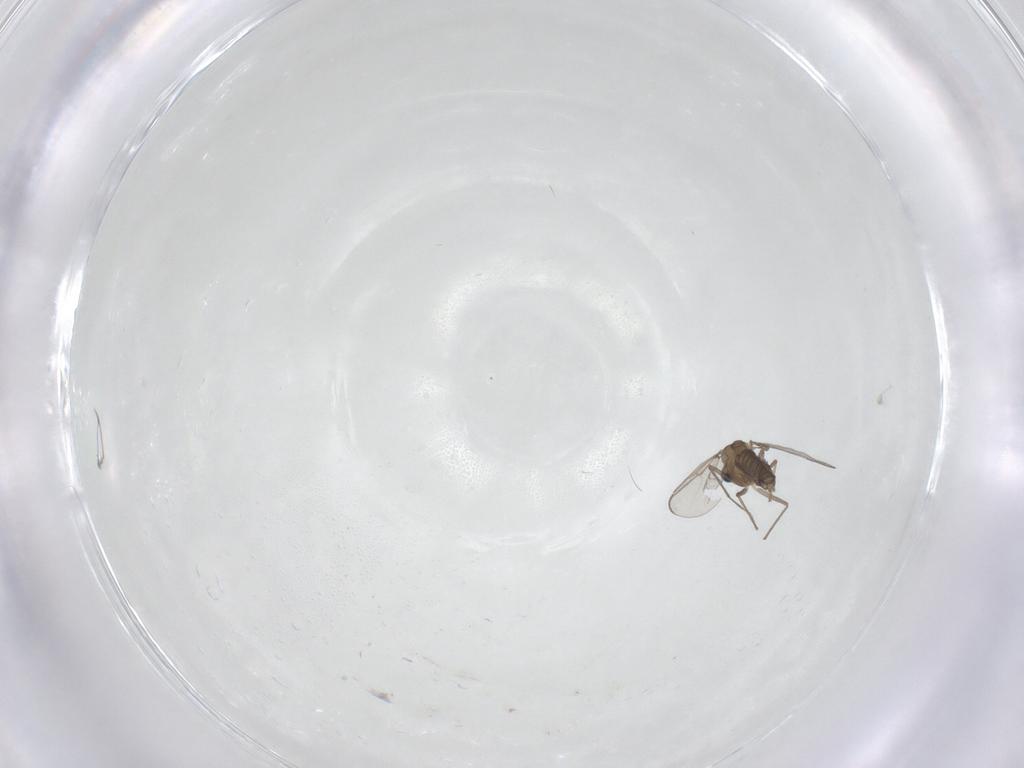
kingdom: Animalia
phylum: Arthropoda
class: Insecta
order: Diptera
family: Chironomidae
